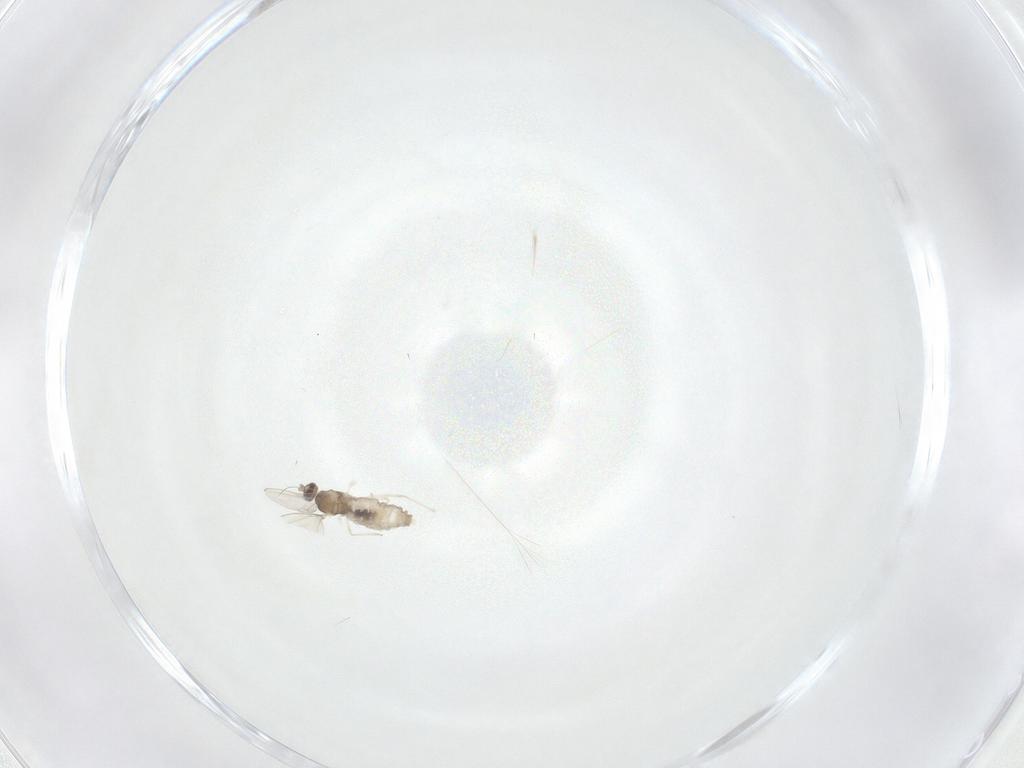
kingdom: Animalia
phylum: Arthropoda
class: Insecta
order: Diptera
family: Cecidomyiidae
